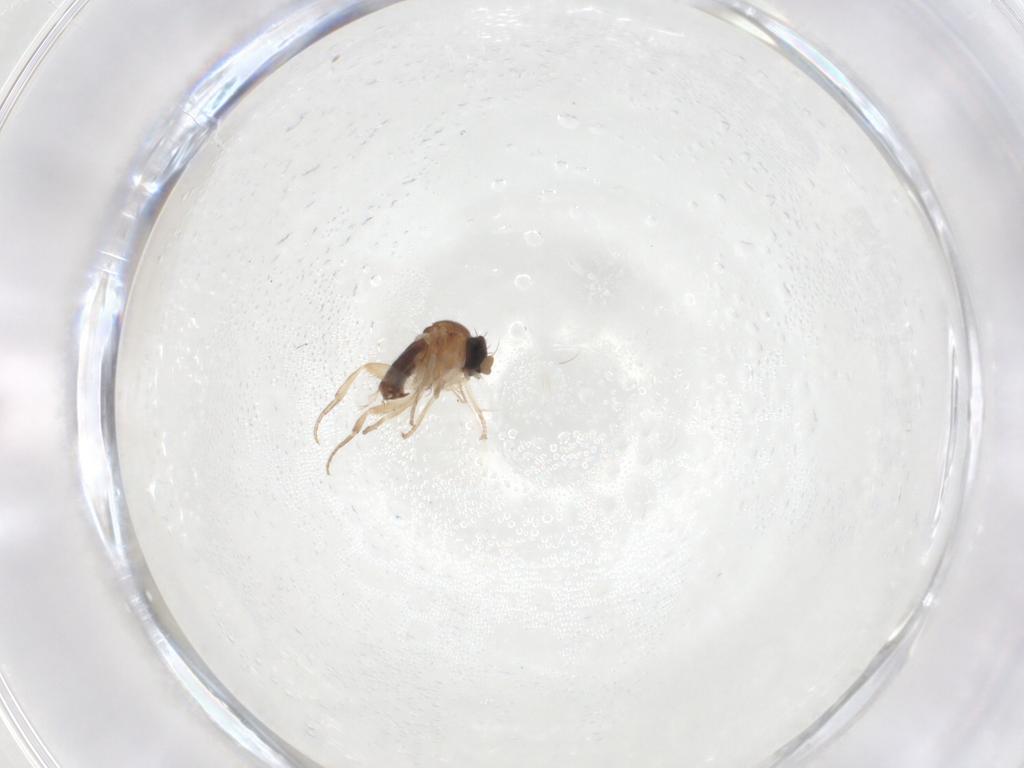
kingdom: Animalia
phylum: Arthropoda
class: Insecta
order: Diptera
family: Phoridae
